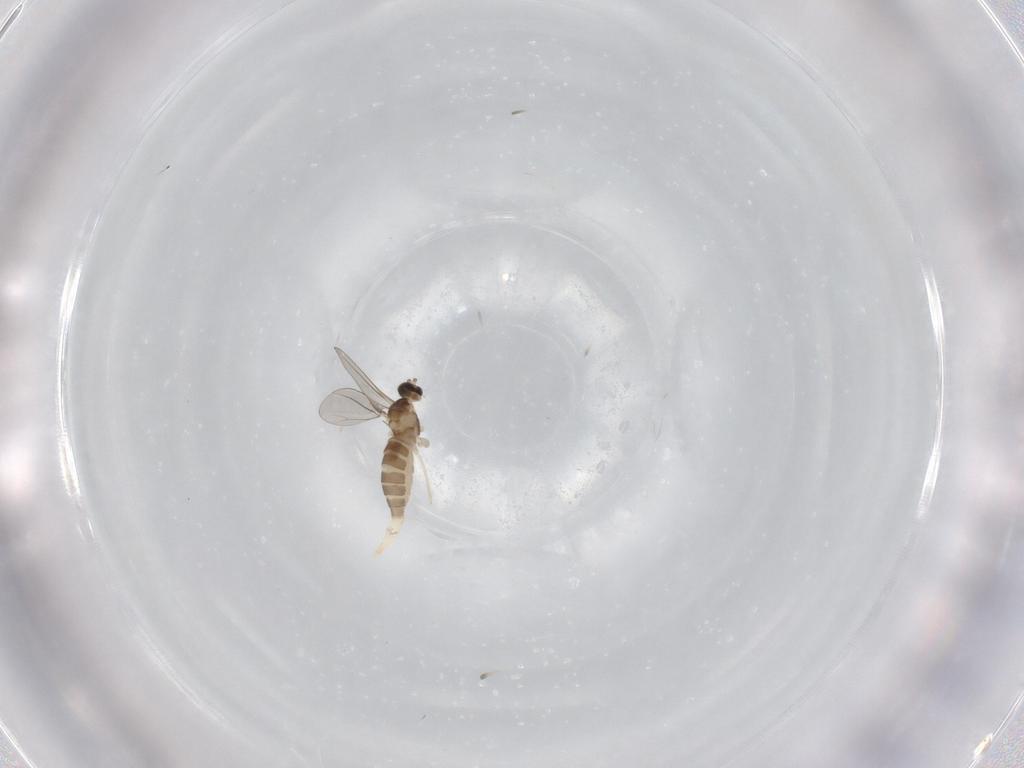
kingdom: Animalia
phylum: Arthropoda
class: Insecta
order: Diptera
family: Cecidomyiidae
